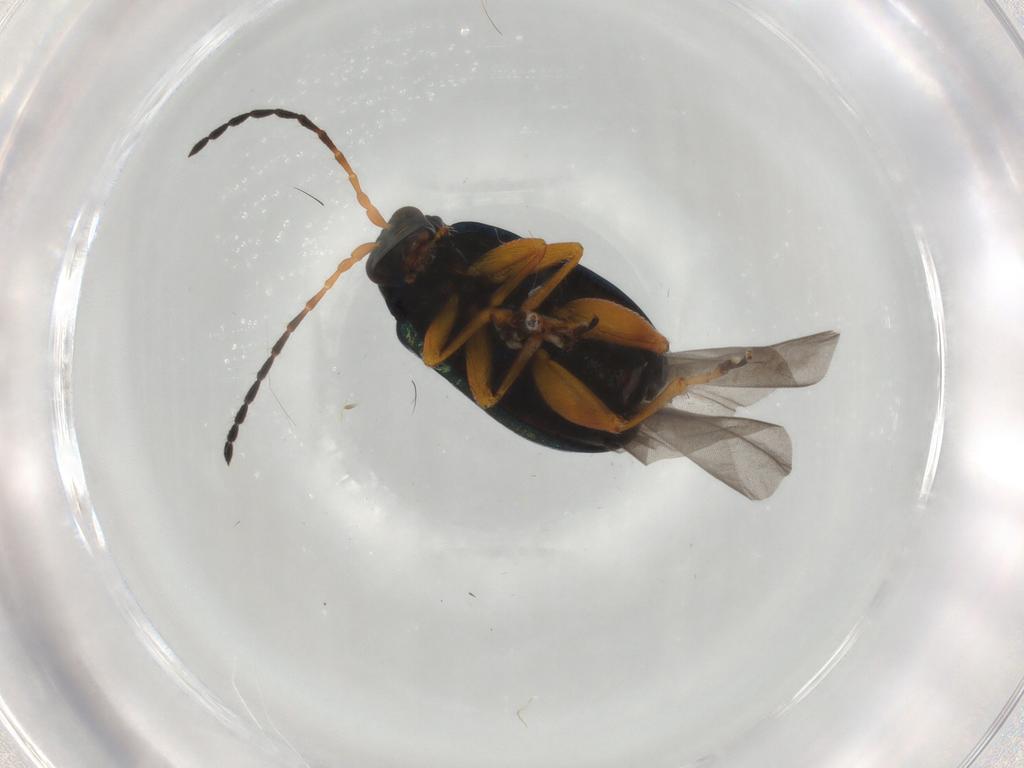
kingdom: Animalia
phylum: Arthropoda
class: Insecta
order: Coleoptera
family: Chrysomelidae
